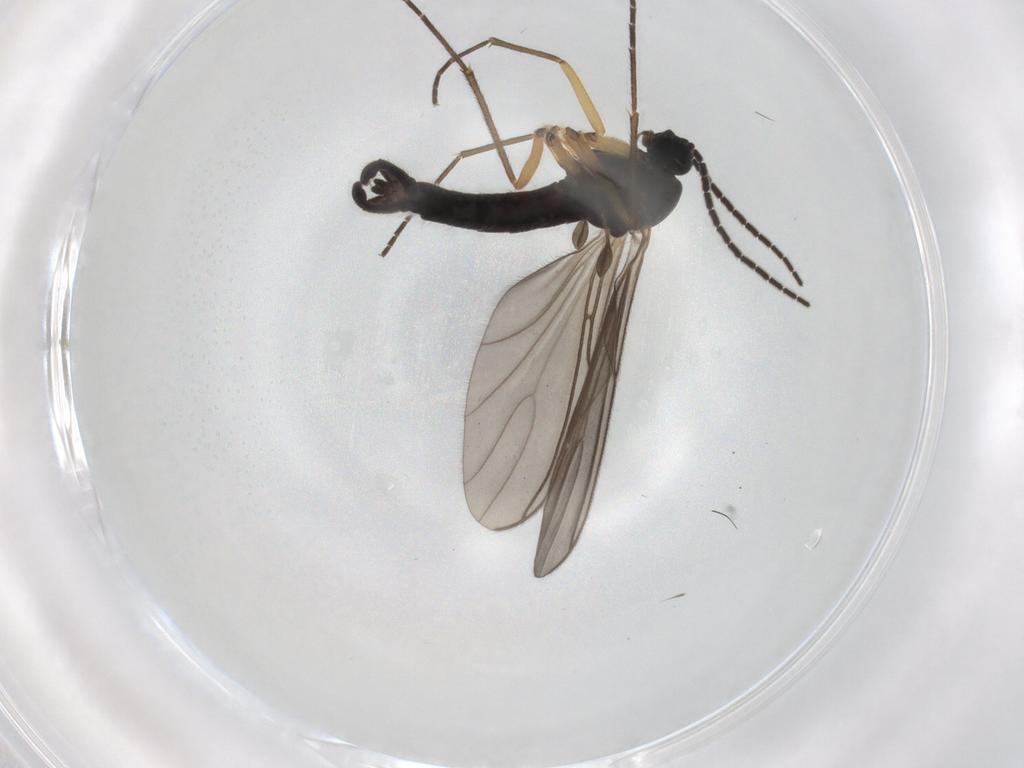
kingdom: Animalia
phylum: Arthropoda
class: Insecta
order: Diptera
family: Sciaridae
